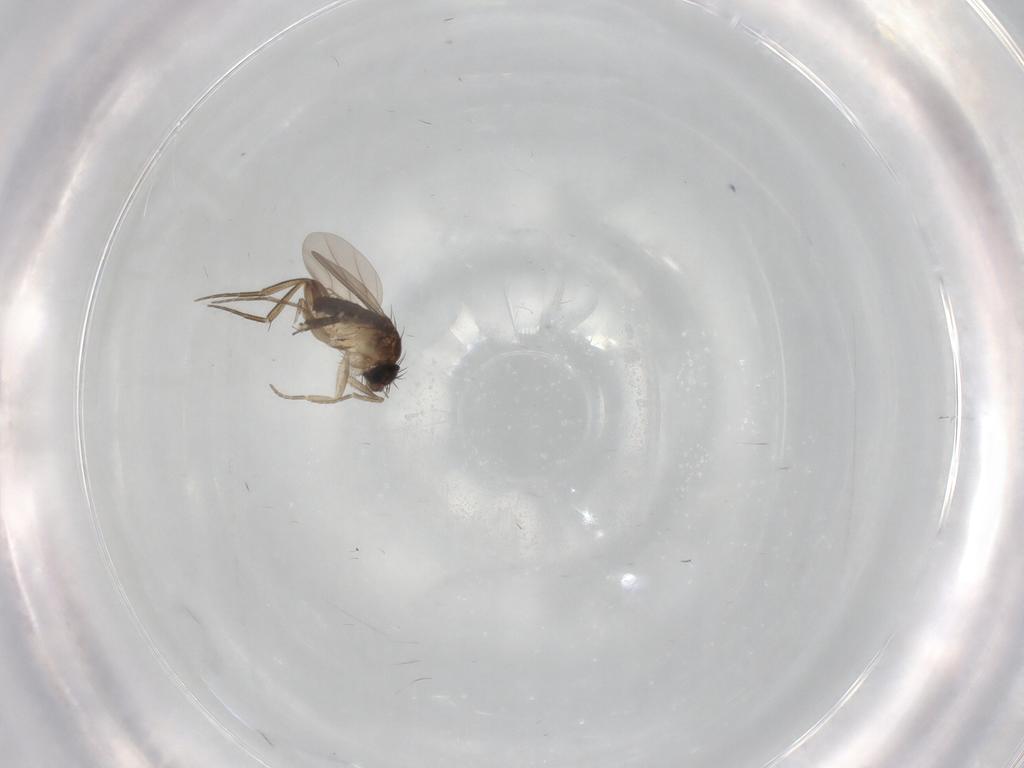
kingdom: Animalia
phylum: Arthropoda
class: Insecta
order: Diptera
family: Phoridae
